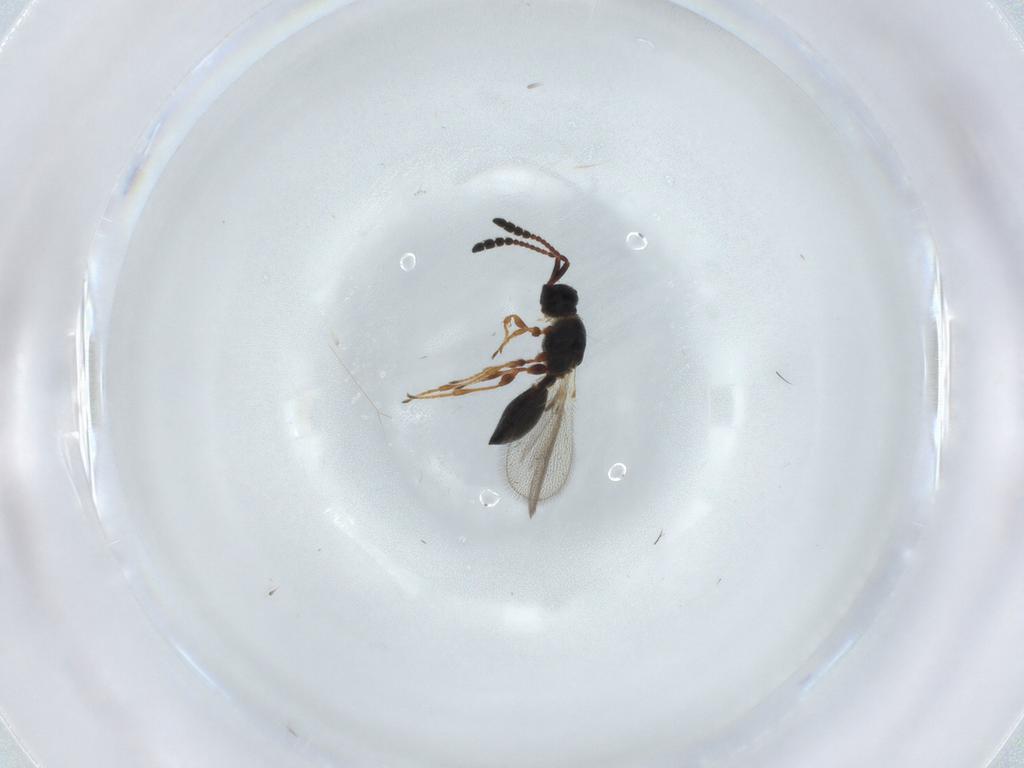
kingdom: Animalia
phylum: Arthropoda
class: Insecta
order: Hymenoptera
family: Diapriidae
